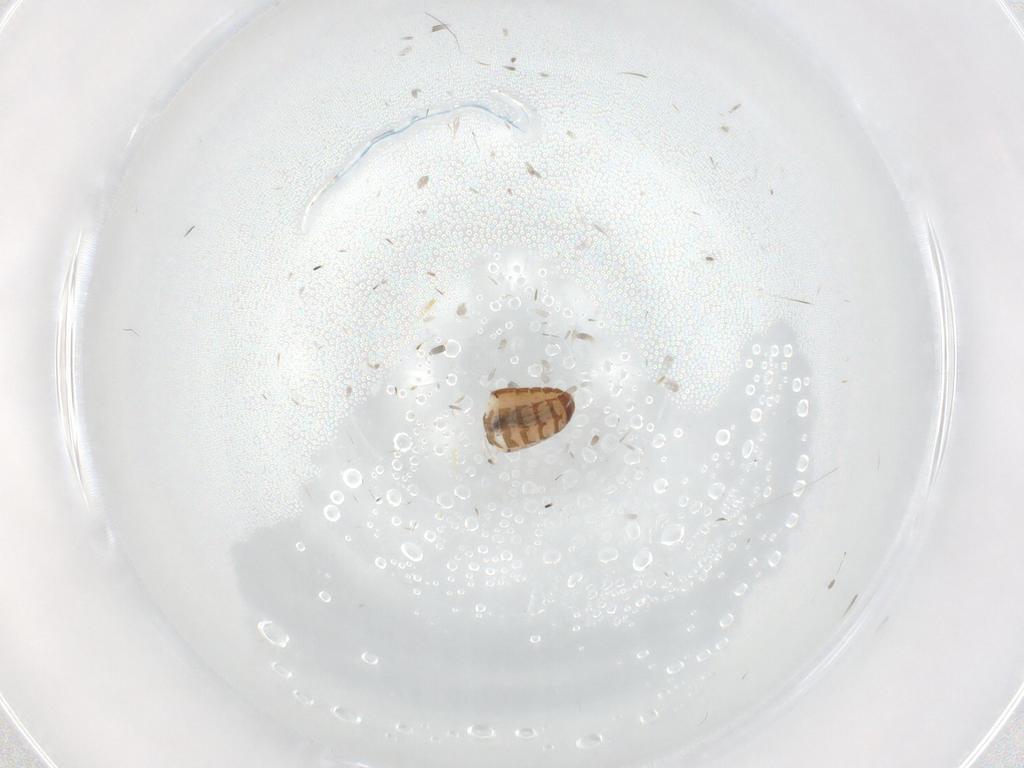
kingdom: Animalia
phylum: Arthropoda
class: Insecta
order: Coleoptera
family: Latridiidae
